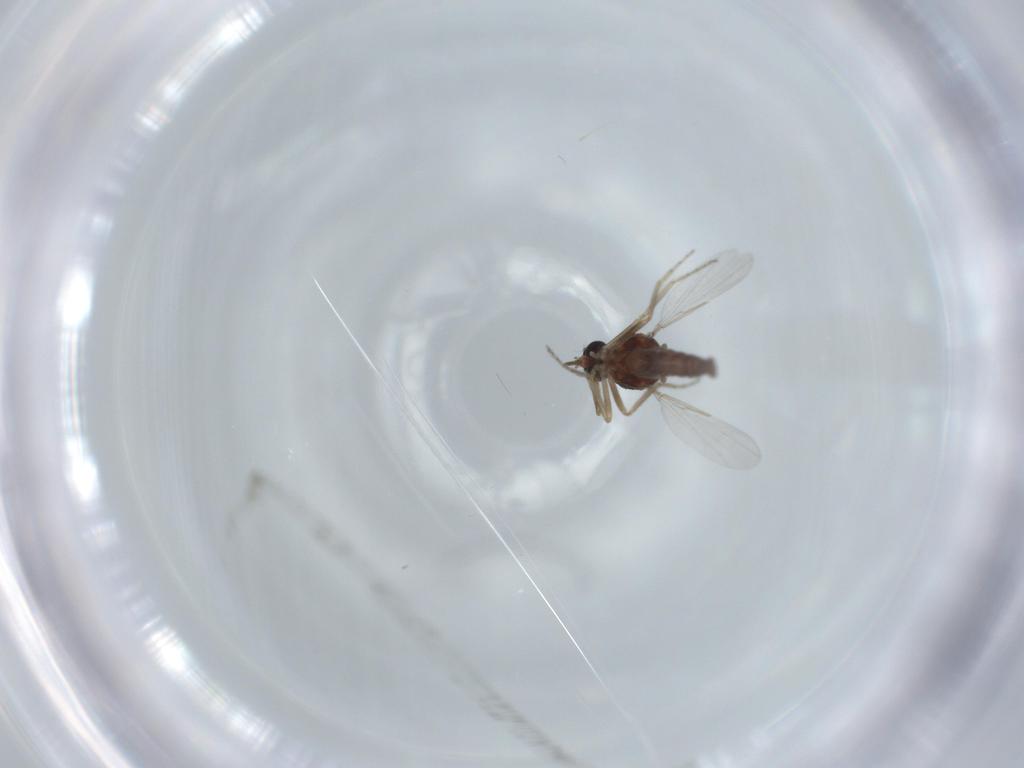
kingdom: Animalia
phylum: Arthropoda
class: Insecta
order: Diptera
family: Ceratopogonidae
